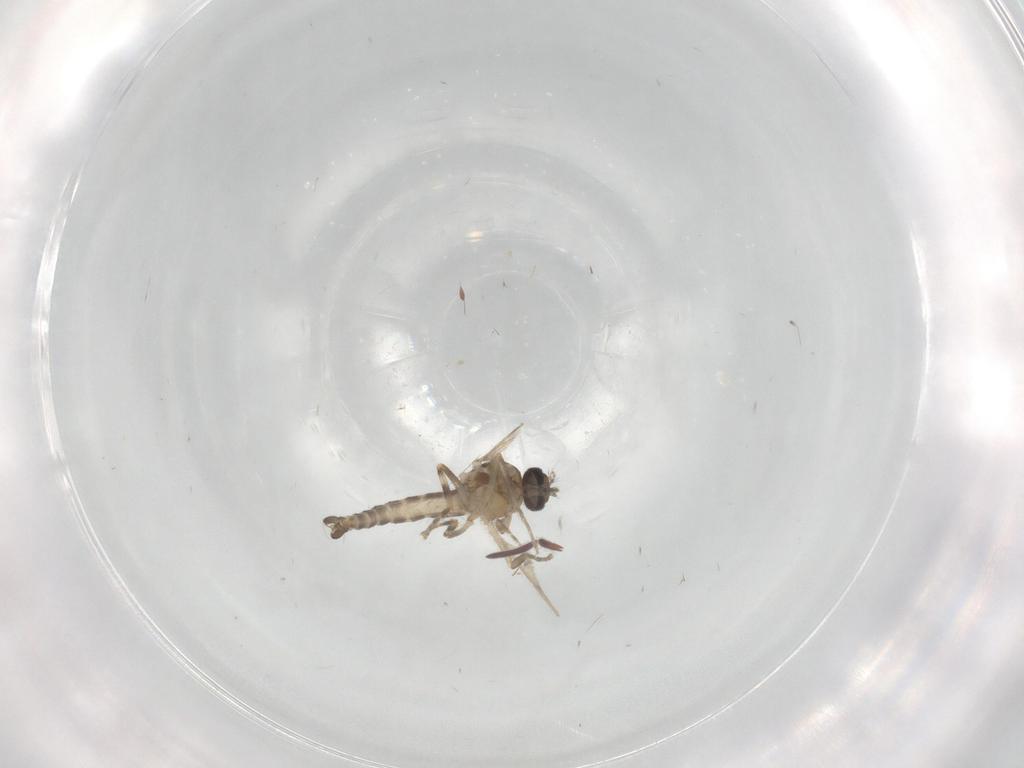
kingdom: Animalia
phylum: Arthropoda
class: Insecta
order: Diptera
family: Ceratopogonidae
